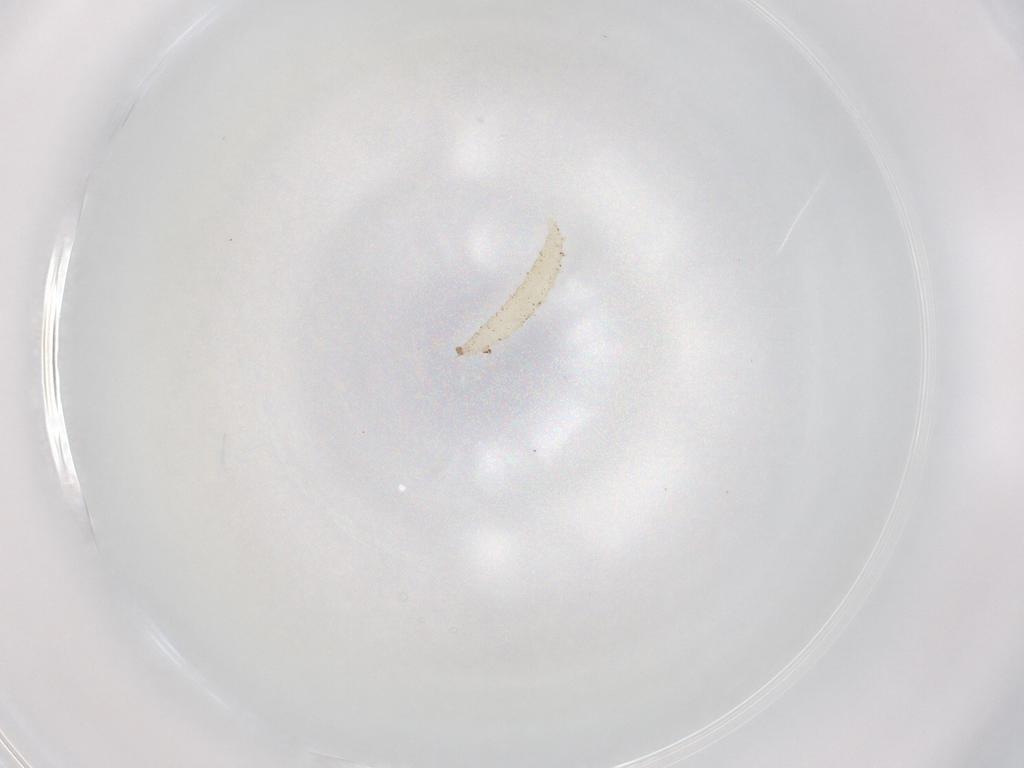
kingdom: Animalia
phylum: Arthropoda
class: Insecta
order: Diptera
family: Cecidomyiidae
